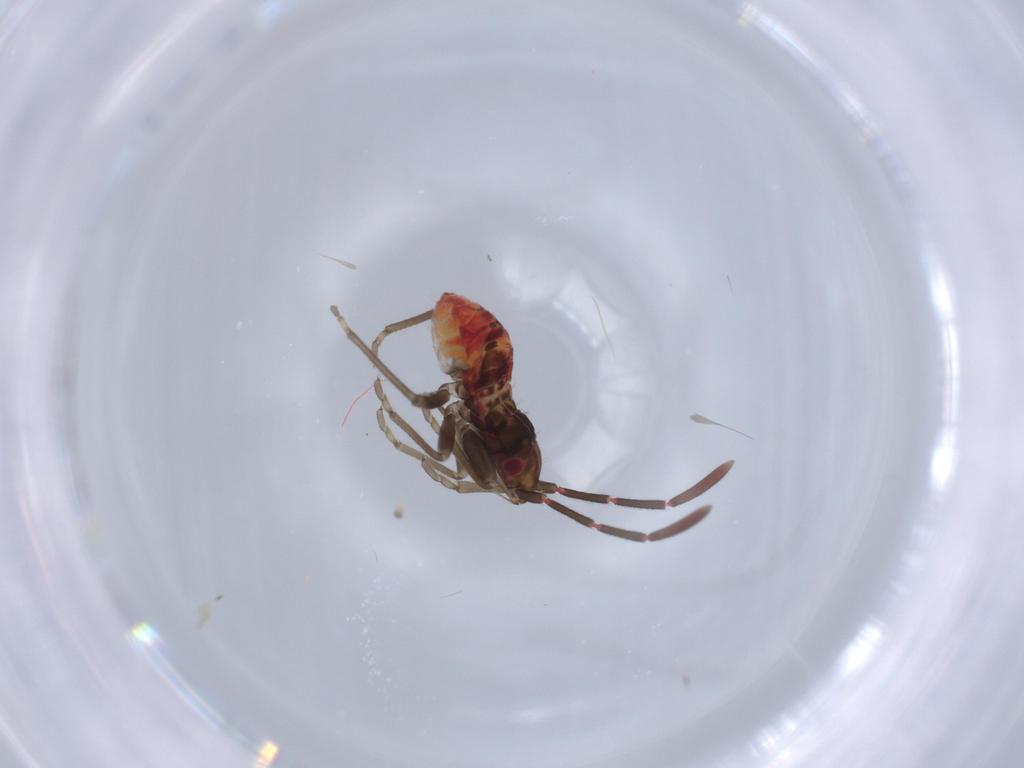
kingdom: Animalia
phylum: Arthropoda
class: Insecta
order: Hemiptera
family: Rhyparochromidae
